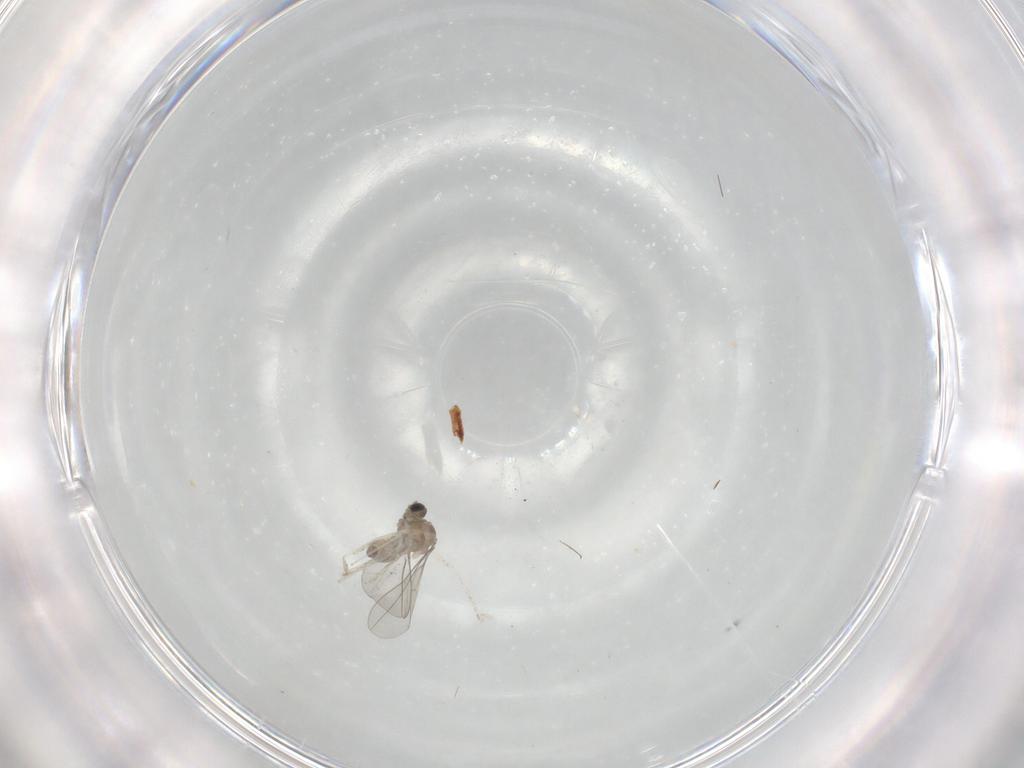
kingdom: Animalia
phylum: Arthropoda
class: Insecta
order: Diptera
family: Cecidomyiidae
